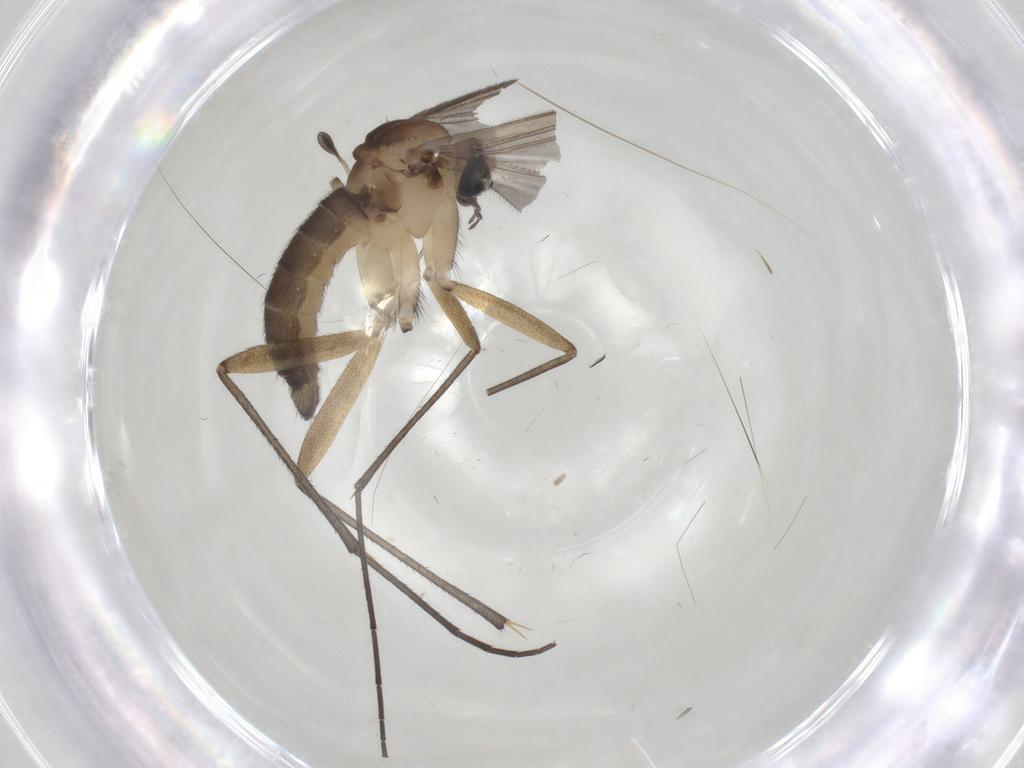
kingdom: Animalia
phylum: Arthropoda
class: Insecta
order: Diptera
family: Sciaridae
